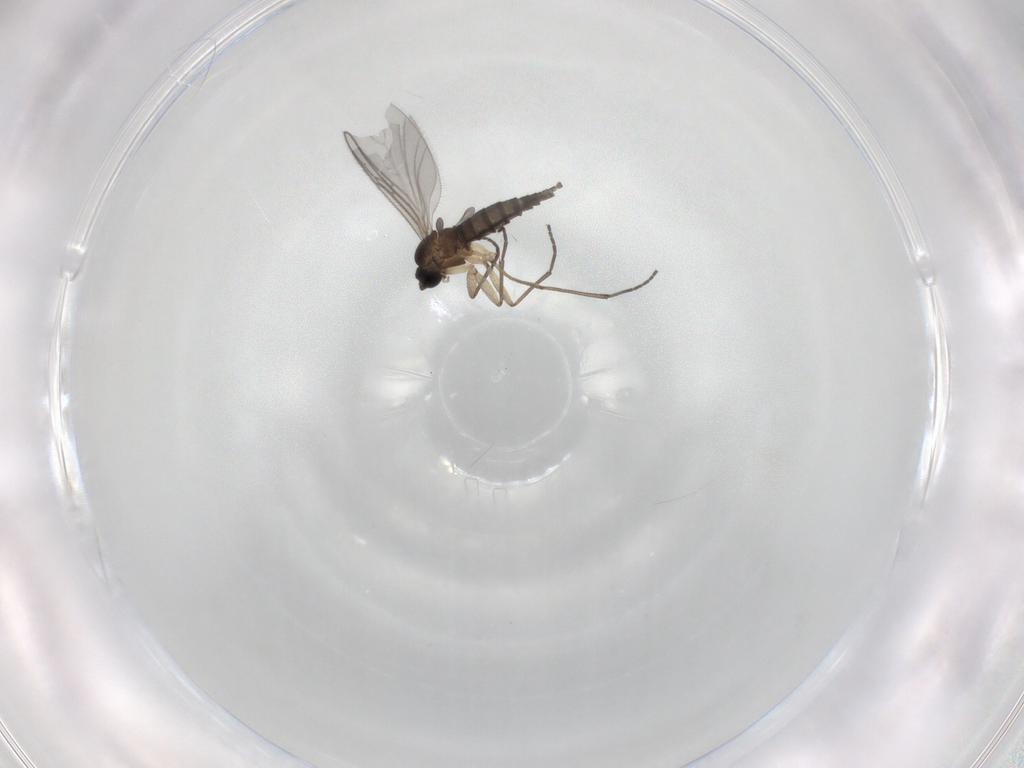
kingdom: Animalia
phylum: Arthropoda
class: Insecta
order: Diptera
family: Sciaridae
